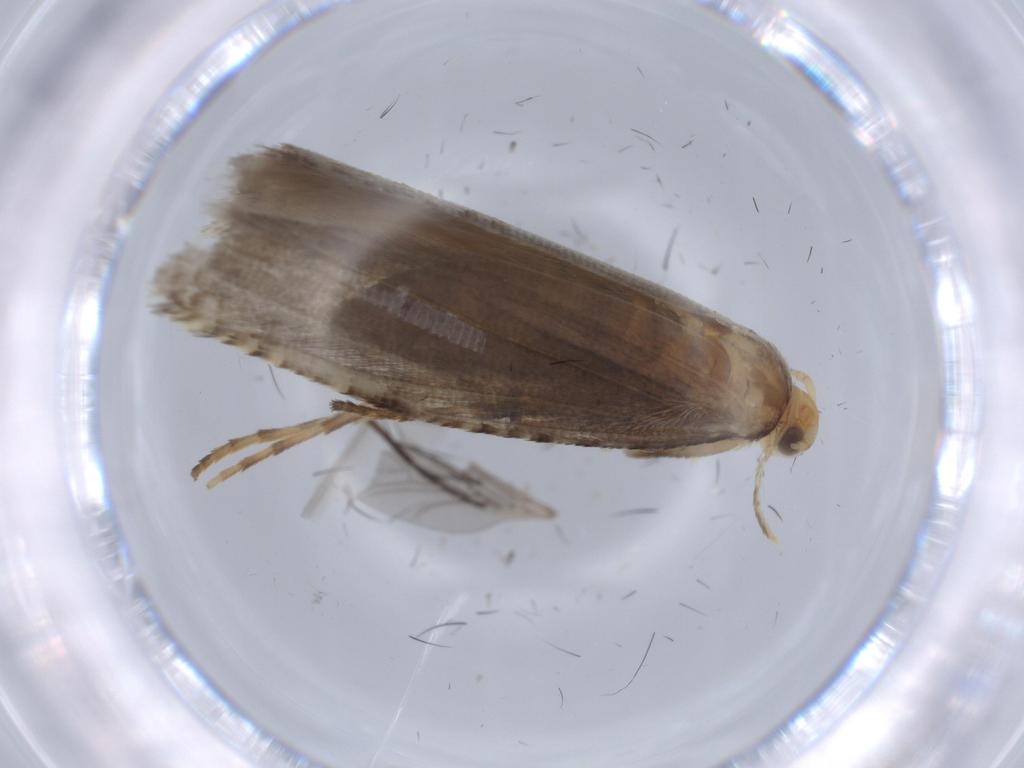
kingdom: Animalia
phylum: Arthropoda
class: Insecta
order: Lepidoptera
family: Argyresthiidae
